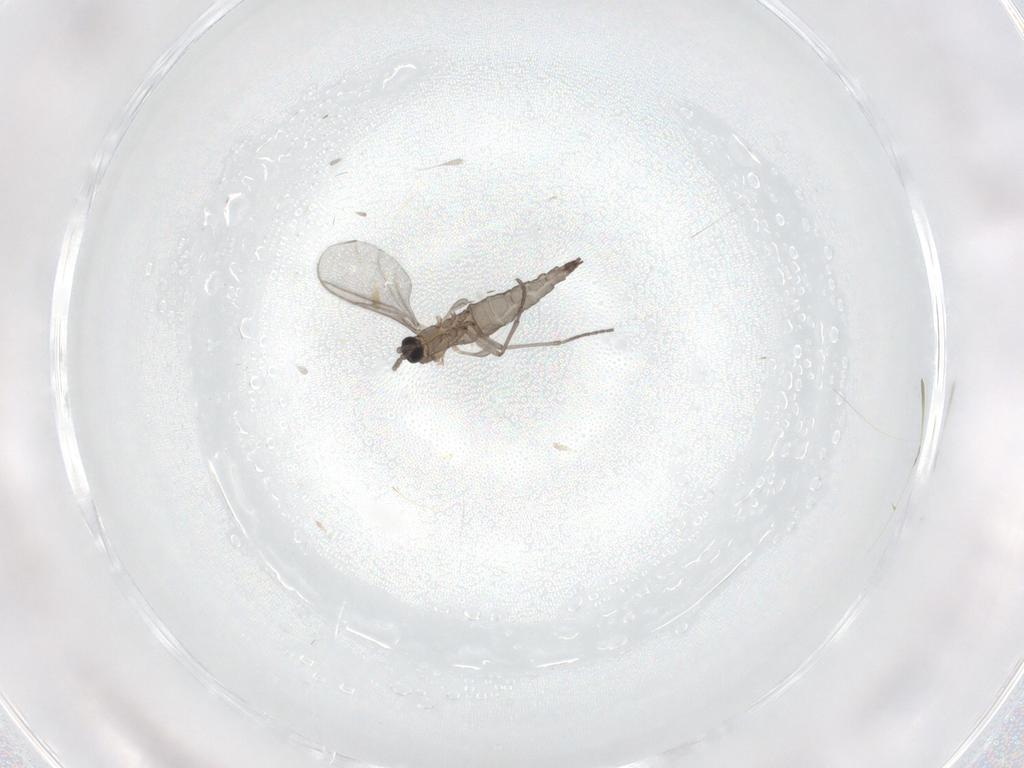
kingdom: Animalia
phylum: Arthropoda
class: Insecta
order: Diptera
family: Sciaridae
